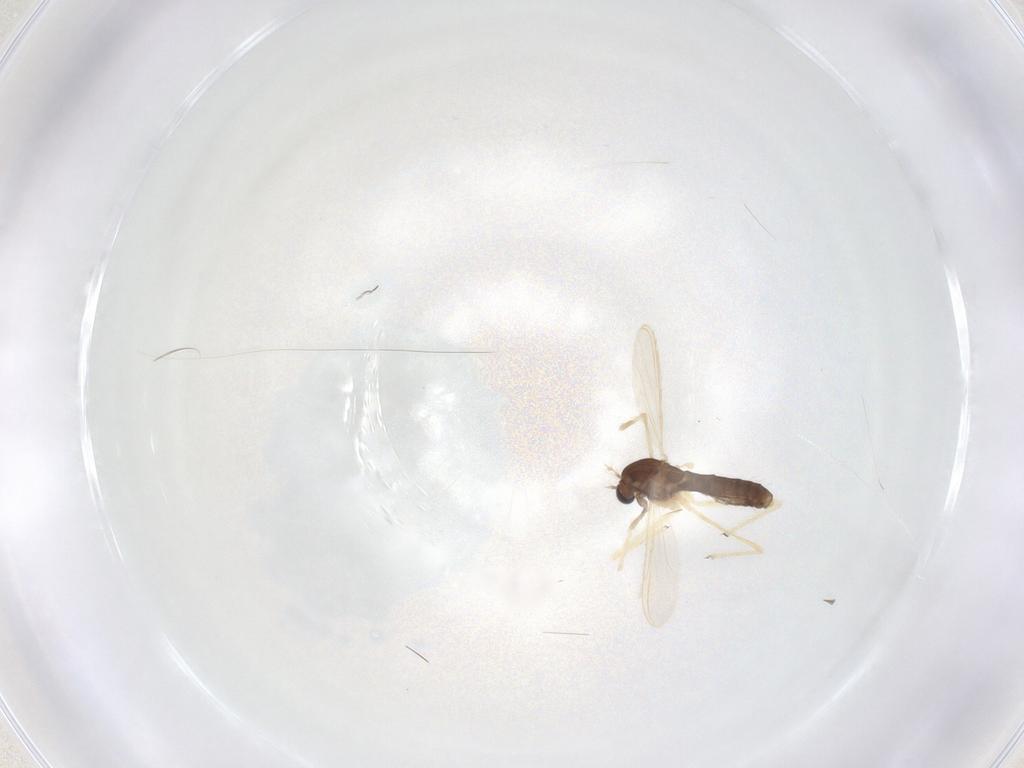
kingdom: Animalia
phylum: Arthropoda
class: Insecta
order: Diptera
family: Chironomidae
